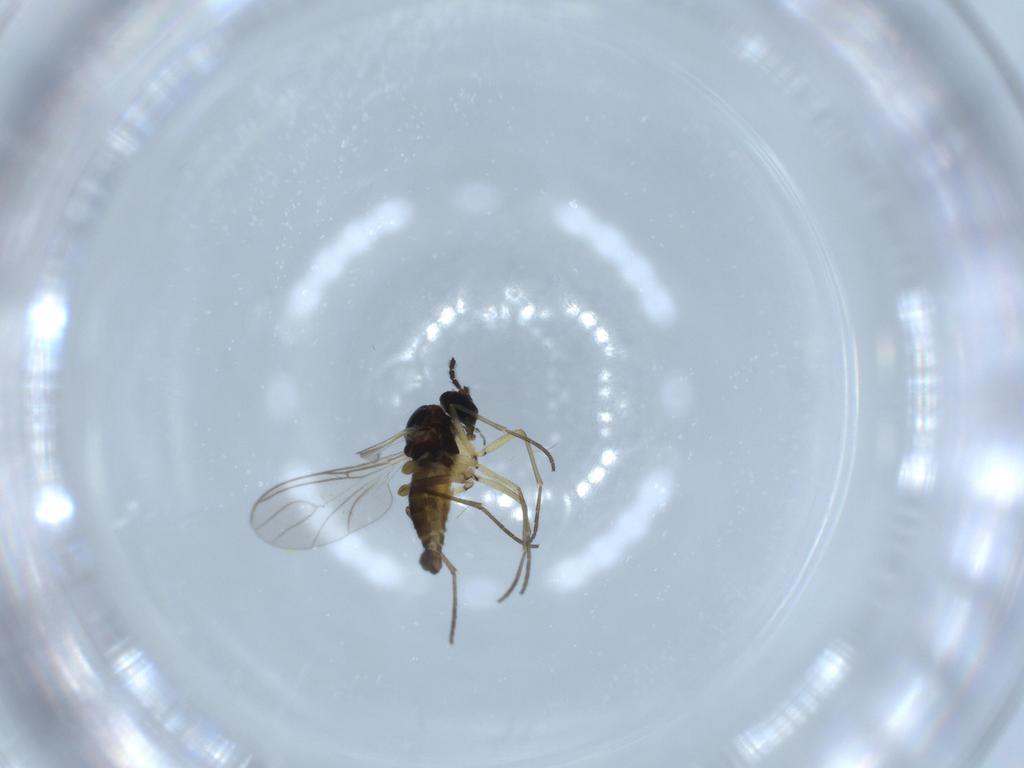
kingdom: Animalia
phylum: Arthropoda
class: Insecta
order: Diptera
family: Sciaridae
